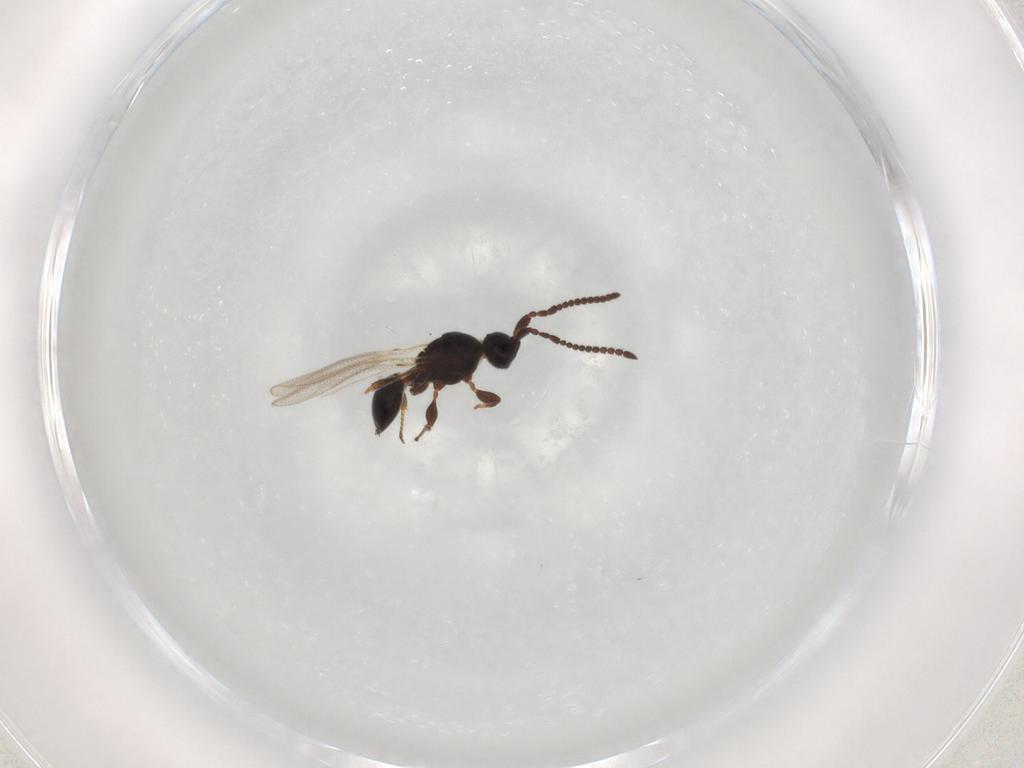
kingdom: Animalia
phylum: Arthropoda
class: Insecta
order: Hymenoptera
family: Diapriidae
